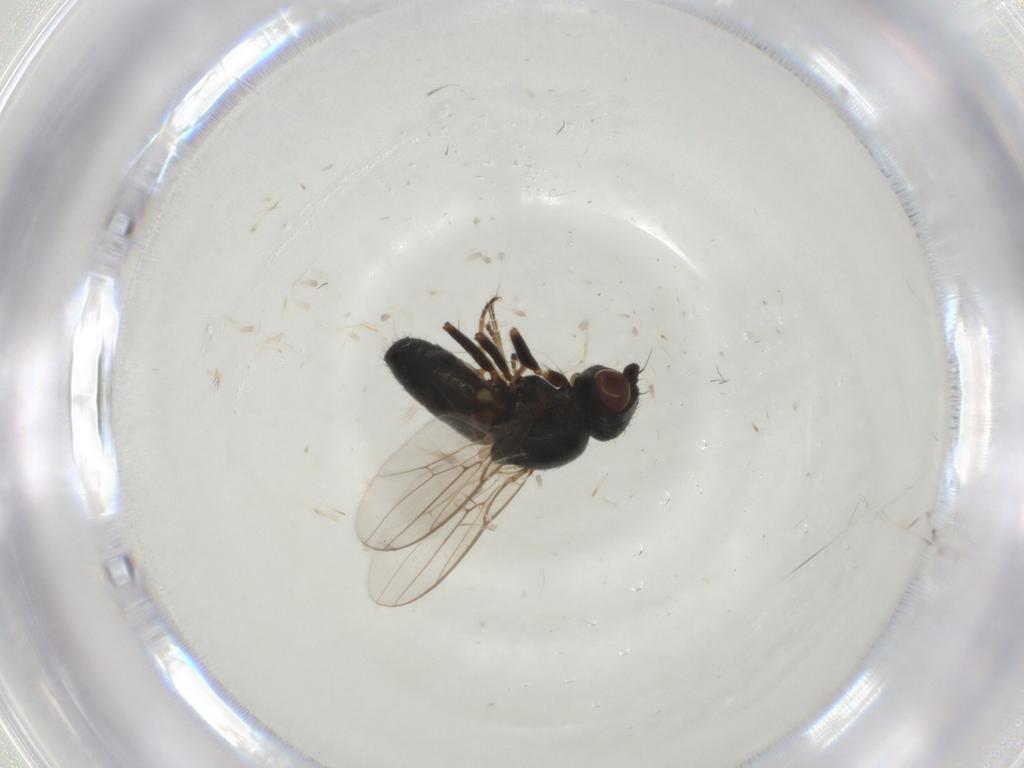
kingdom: Animalia
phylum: Arthropoda
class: Insecta
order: Diptera
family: Chloropidae
